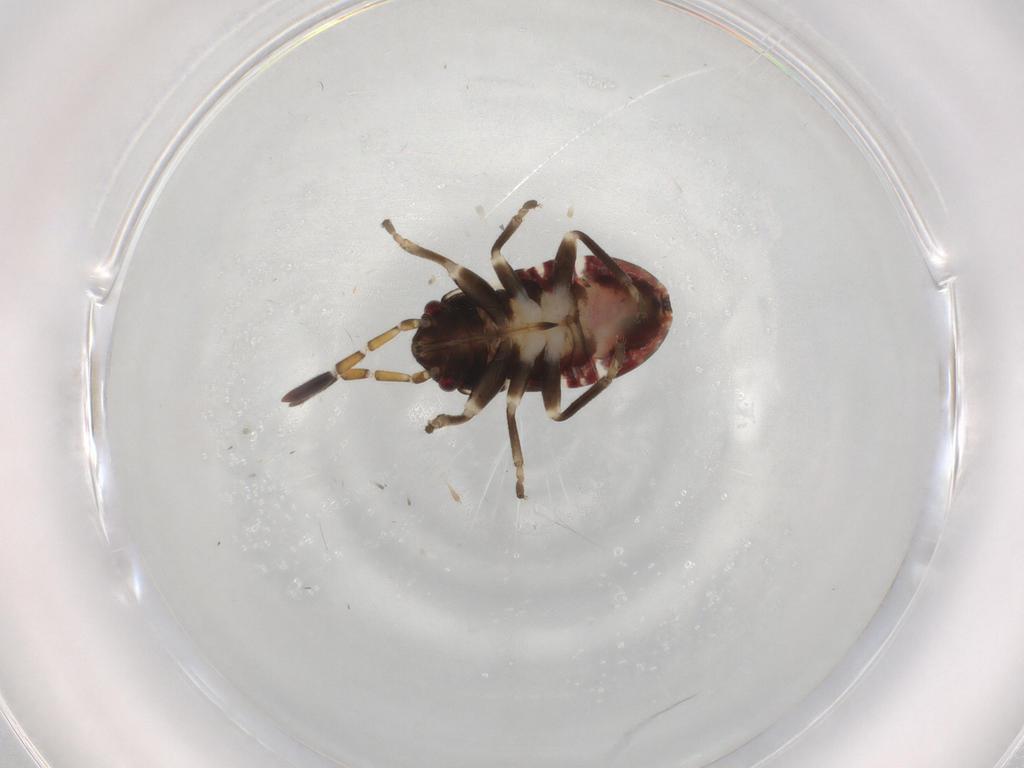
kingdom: Animalia
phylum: Arthropoda
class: Insecta
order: Hemiptera
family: Rhyparochromidae
